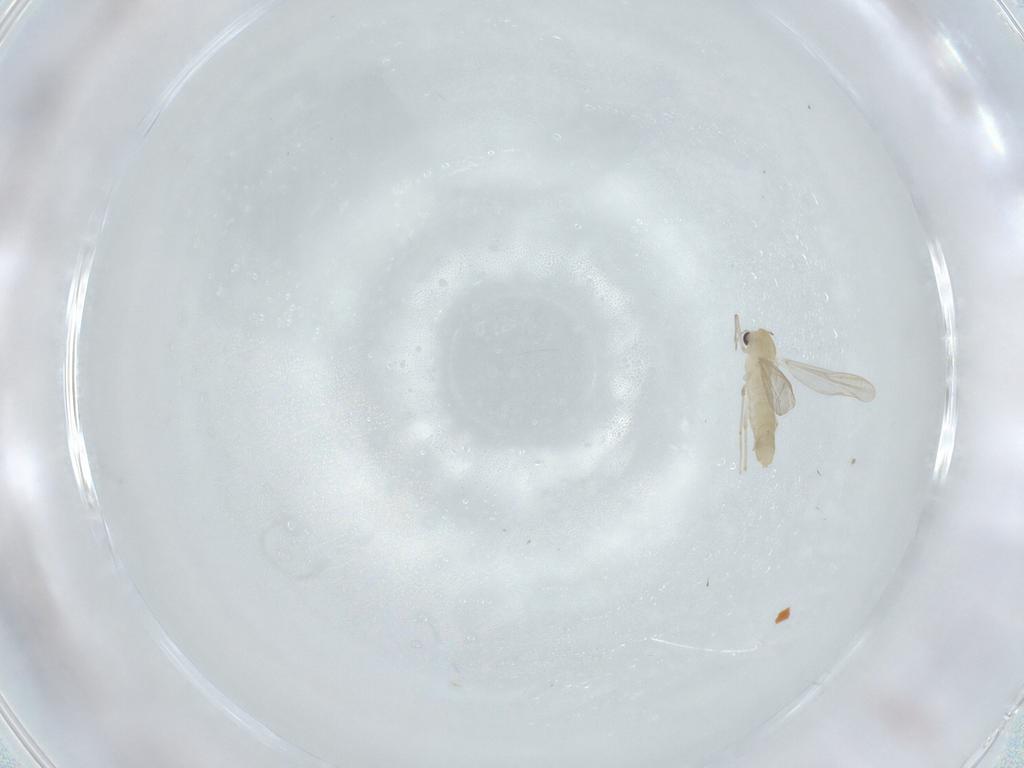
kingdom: Animalia
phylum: Arthropoda
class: Insecta
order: Diptera
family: Chironomidae
